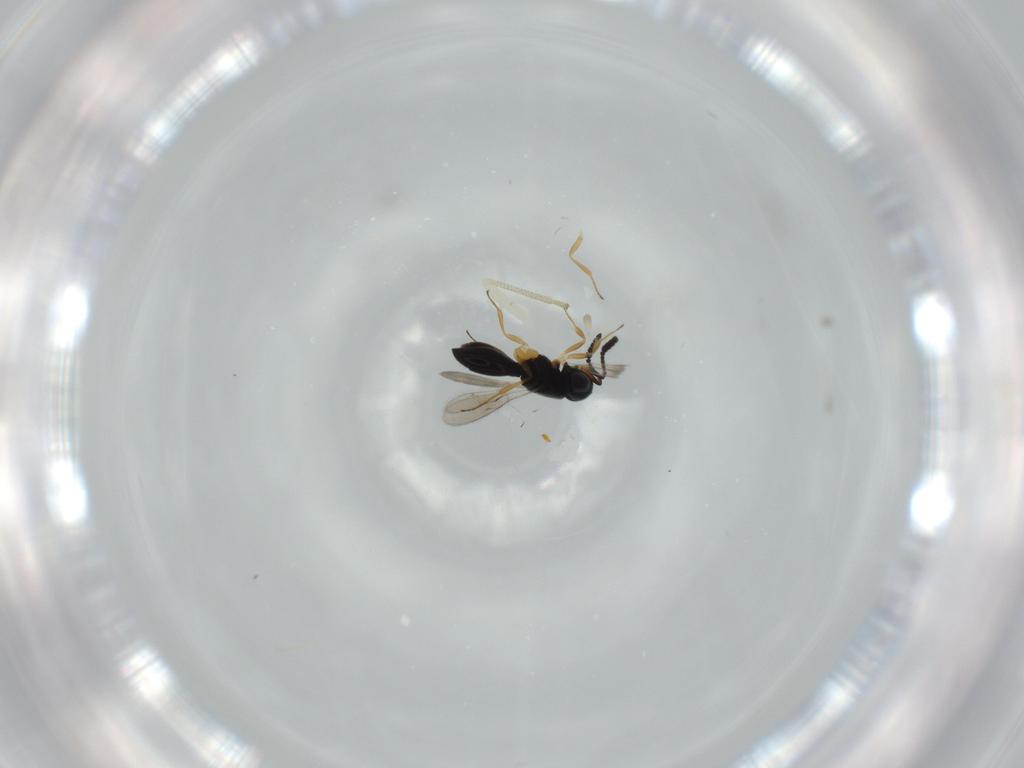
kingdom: Animalia
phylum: Arthropoda
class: Insecta
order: Hymenoptera
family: Scelionidae
